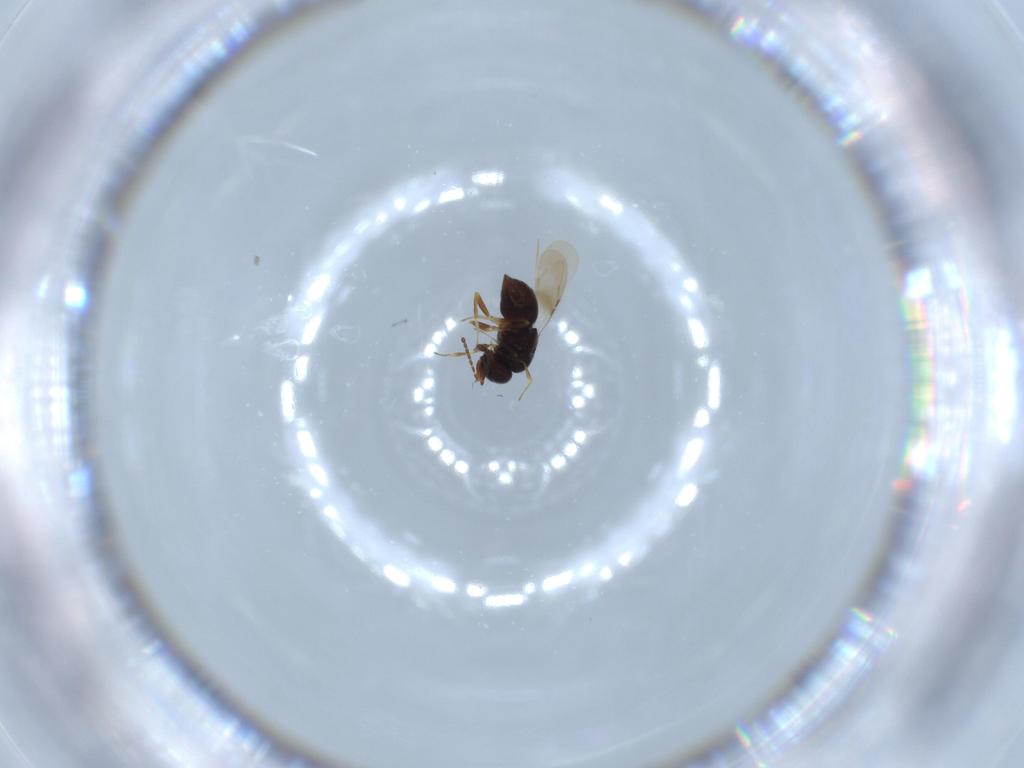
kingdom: Animalia
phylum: Arthropoda
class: Insecta
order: Hymenoptera
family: Ceraphronidae
